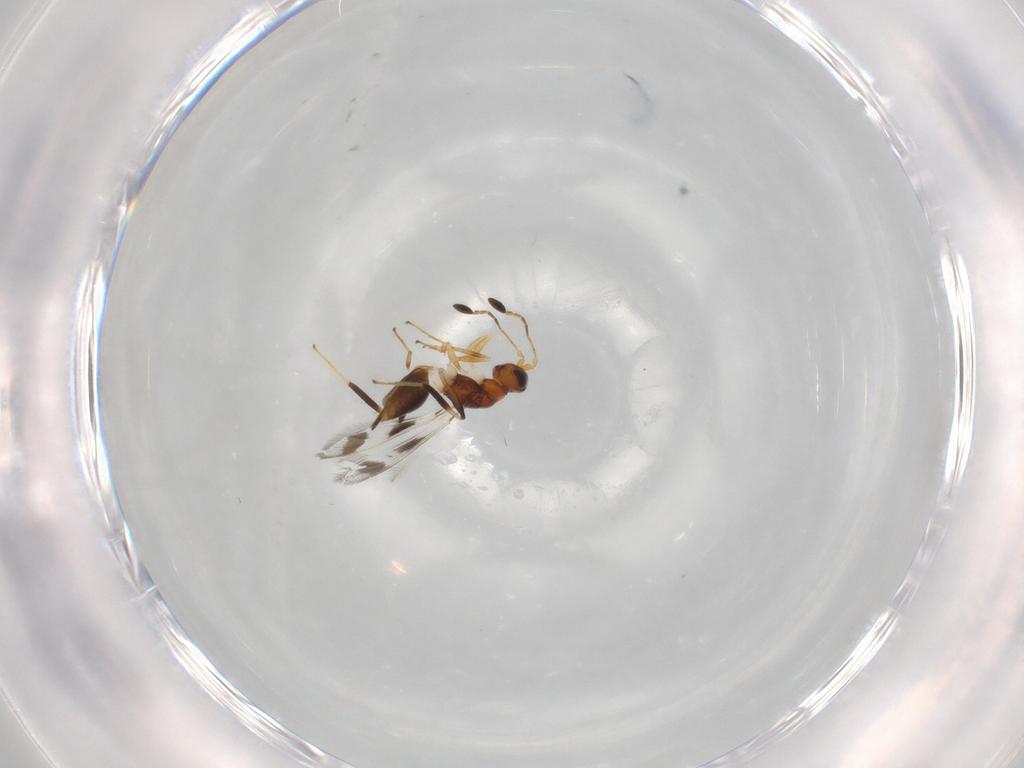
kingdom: Animalia
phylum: Arthropoda
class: Insecta
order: Hymenoptera
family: Mymaridae
